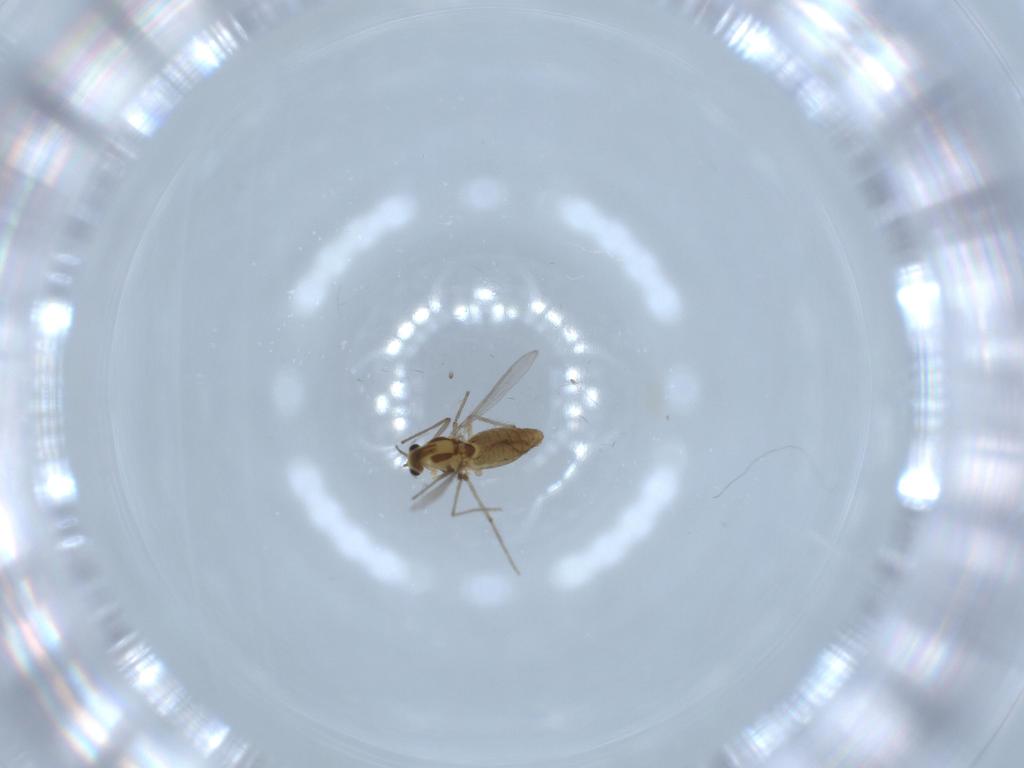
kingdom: Animalia
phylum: Arthropoda
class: Insecta
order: Diptera
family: Chironomidae
